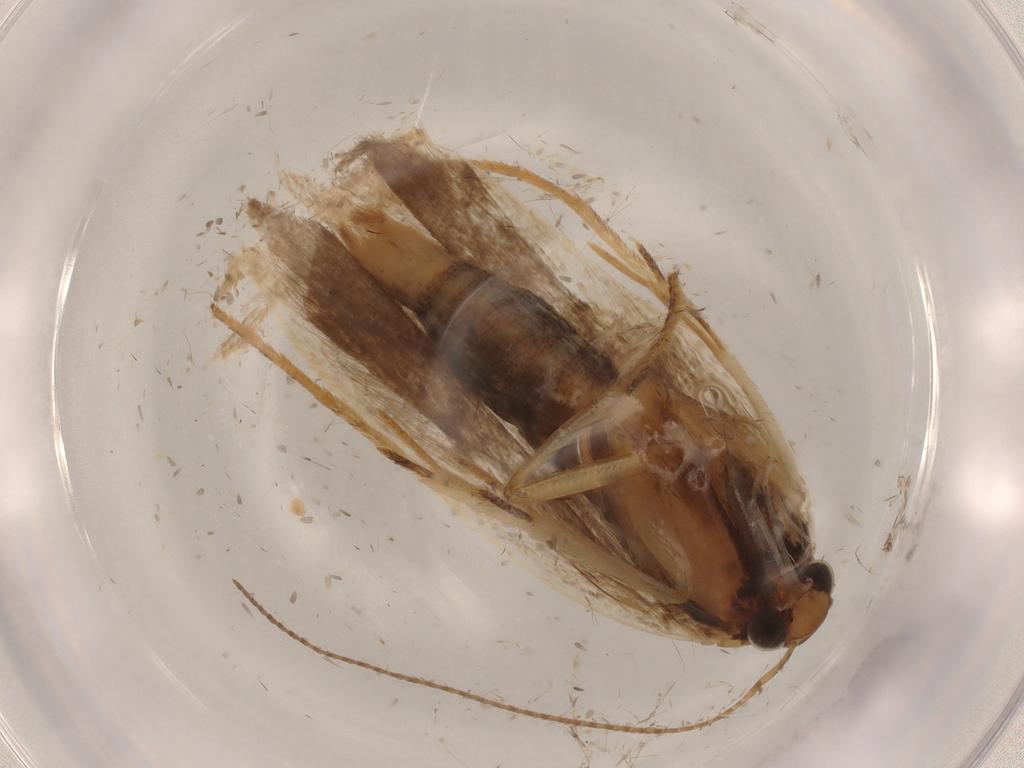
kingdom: Animalia
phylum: Arthropoda
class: Insecta
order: Lepidoptera
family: Gelechiidae
